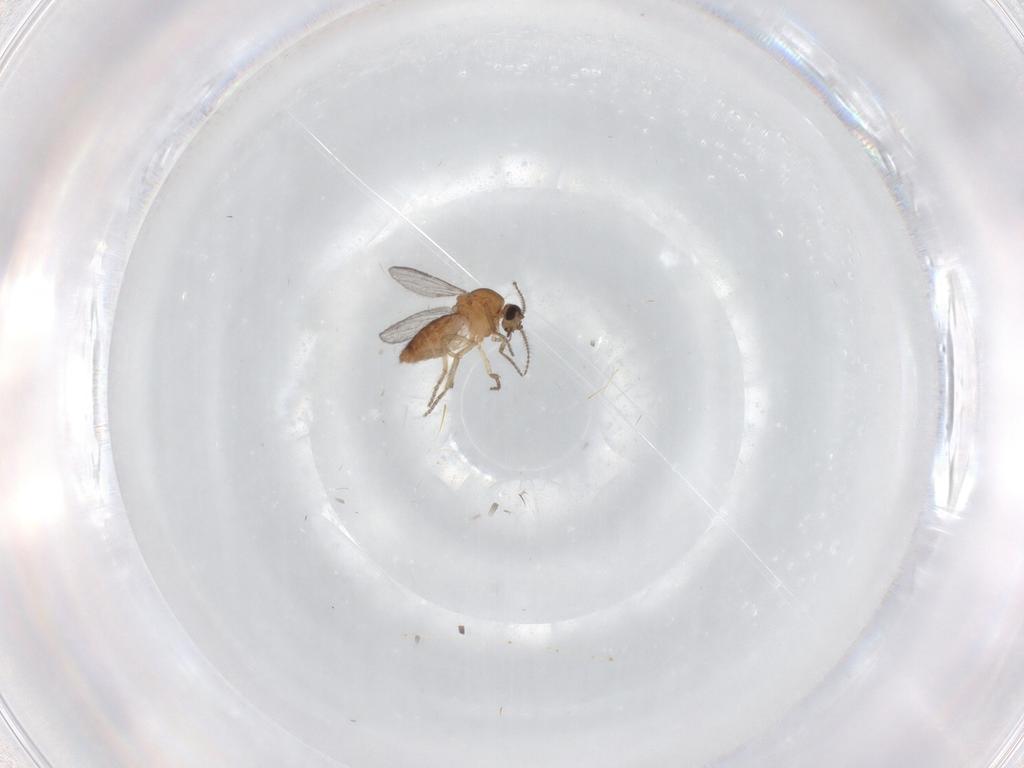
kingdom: Animalia
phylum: Arthropoda
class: Insecta
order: Diptera
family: Ceratopogonidae
